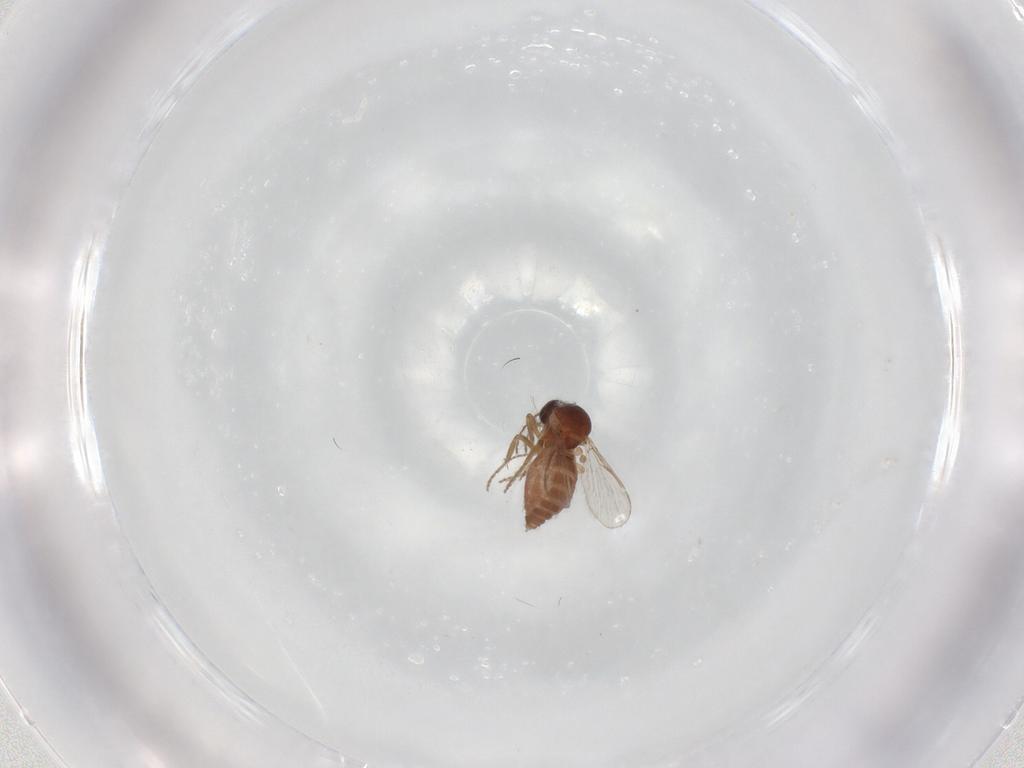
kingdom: Animalia
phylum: Arthropoda
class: Insecta
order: Diptera
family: Ceratopogonidae
